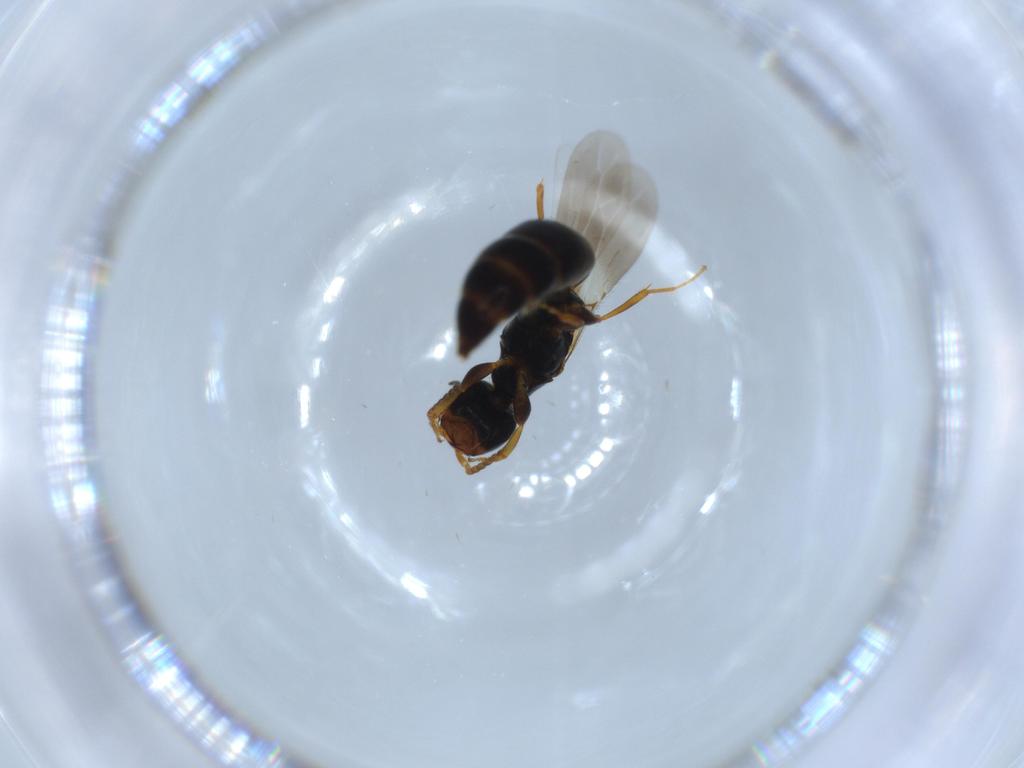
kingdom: Animalia
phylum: Arthropoda
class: Insecta
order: Hymenoptera
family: Bethylidae
